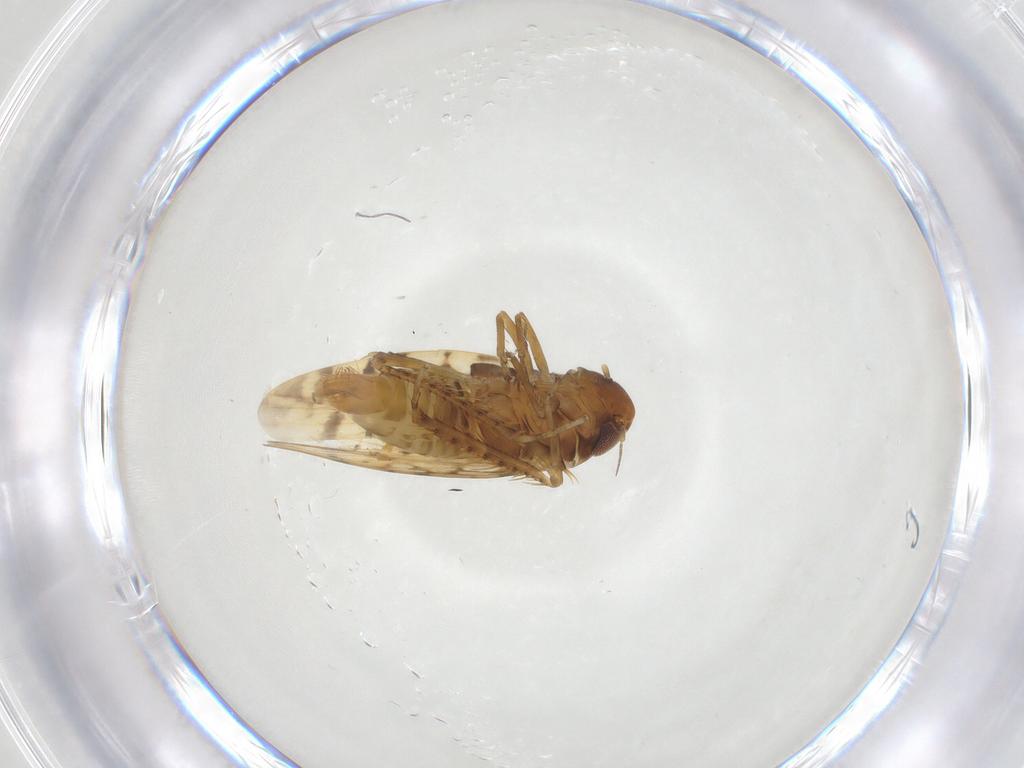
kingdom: Animalia
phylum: Arthropoda
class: Insecta
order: Hemiptera
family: Cicadellidae
